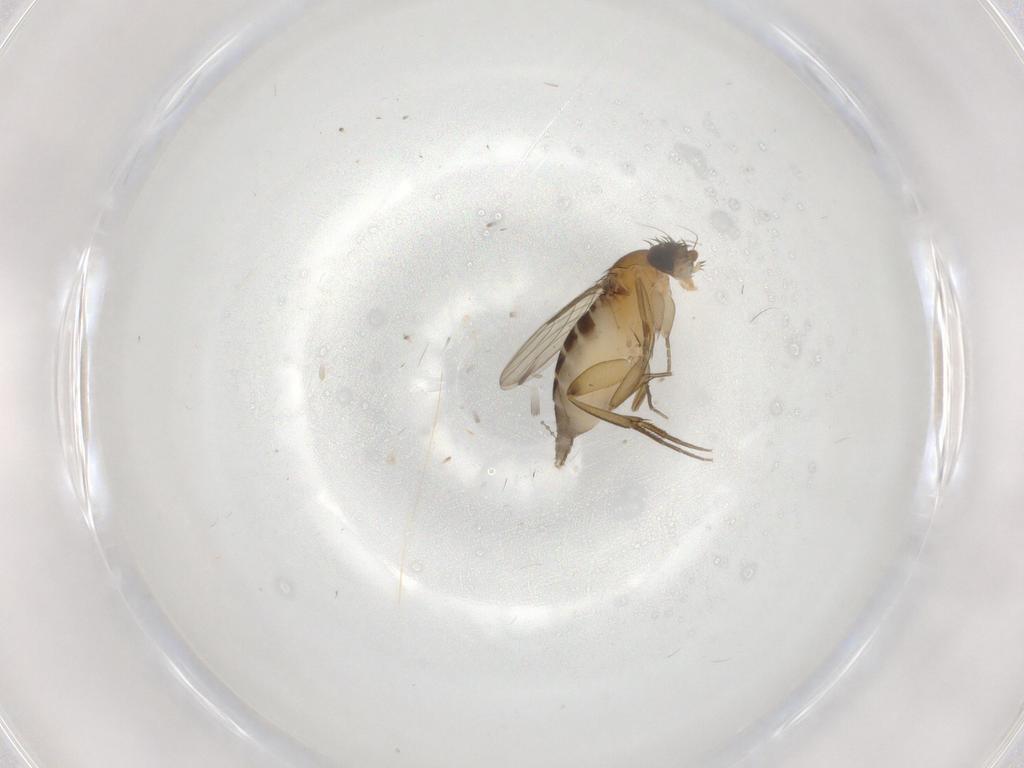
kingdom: Animalia
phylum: Arthropoda
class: Insecta
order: Diptera
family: Phoridae
